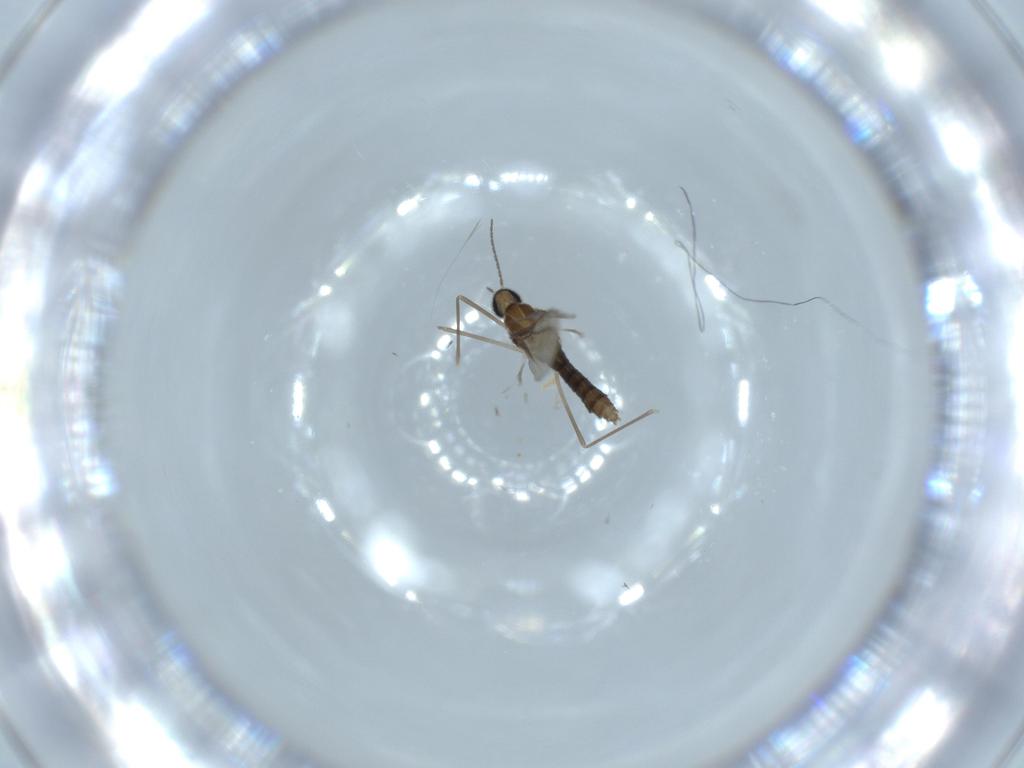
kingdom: Animalia
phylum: Arthropoda
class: Insecta
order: Diptera
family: Cecidomyiidae
